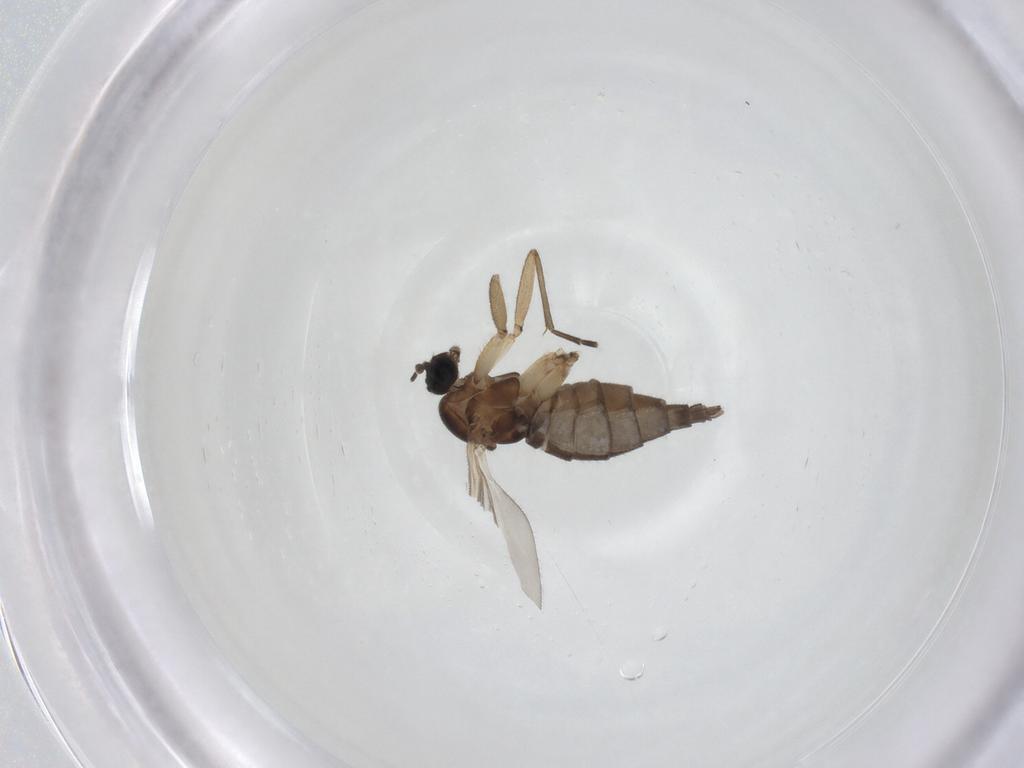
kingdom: Animalia
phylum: Arthropoda
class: Insecta
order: Diptera
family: Sciaridae
